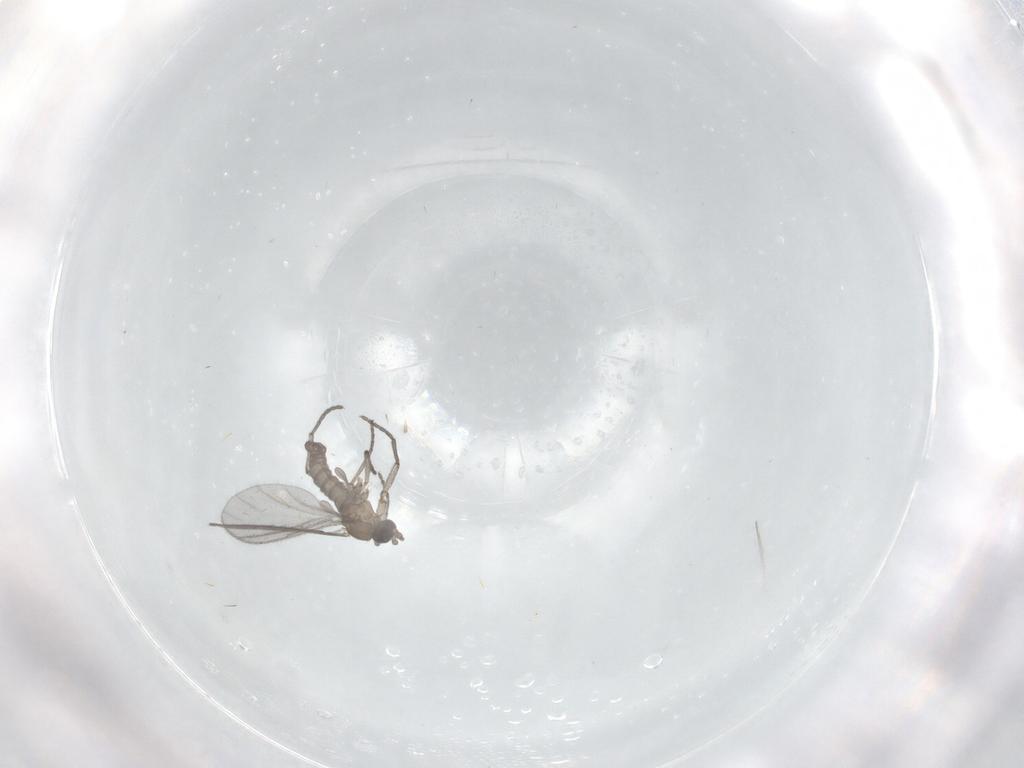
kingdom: Animalia
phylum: Arthropoda
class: Insecta
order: Diptera
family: Sciaridae
